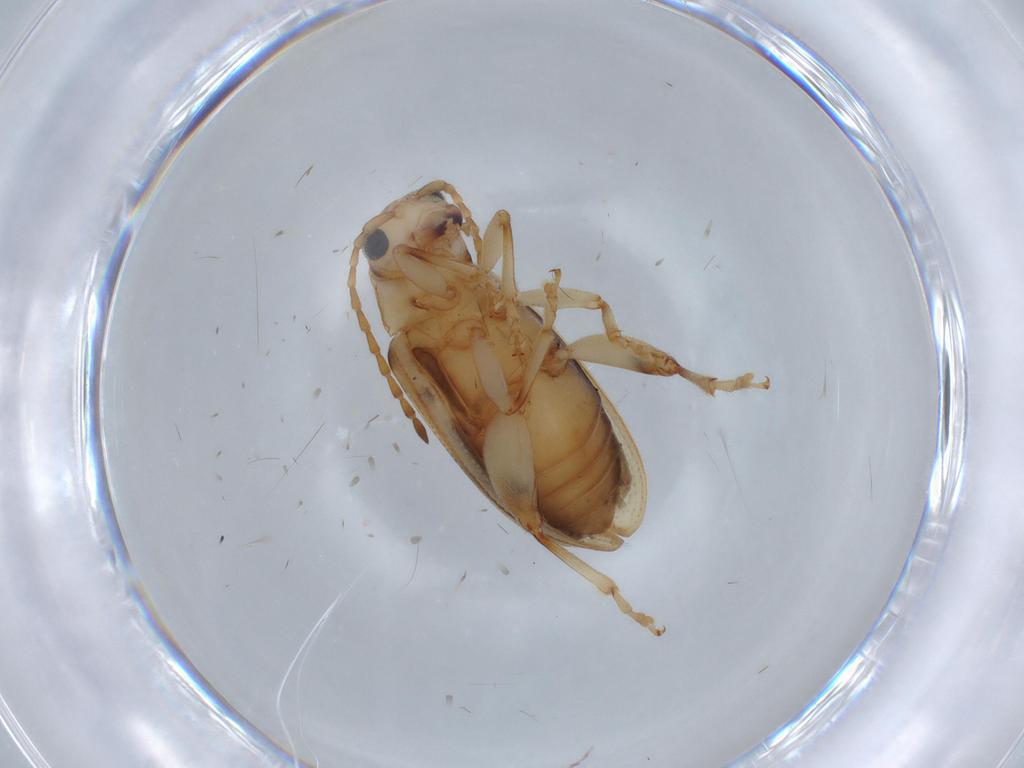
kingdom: Animalia
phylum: Arthropoda
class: Insecta
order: Coleoptera
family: Chrysomelidae
